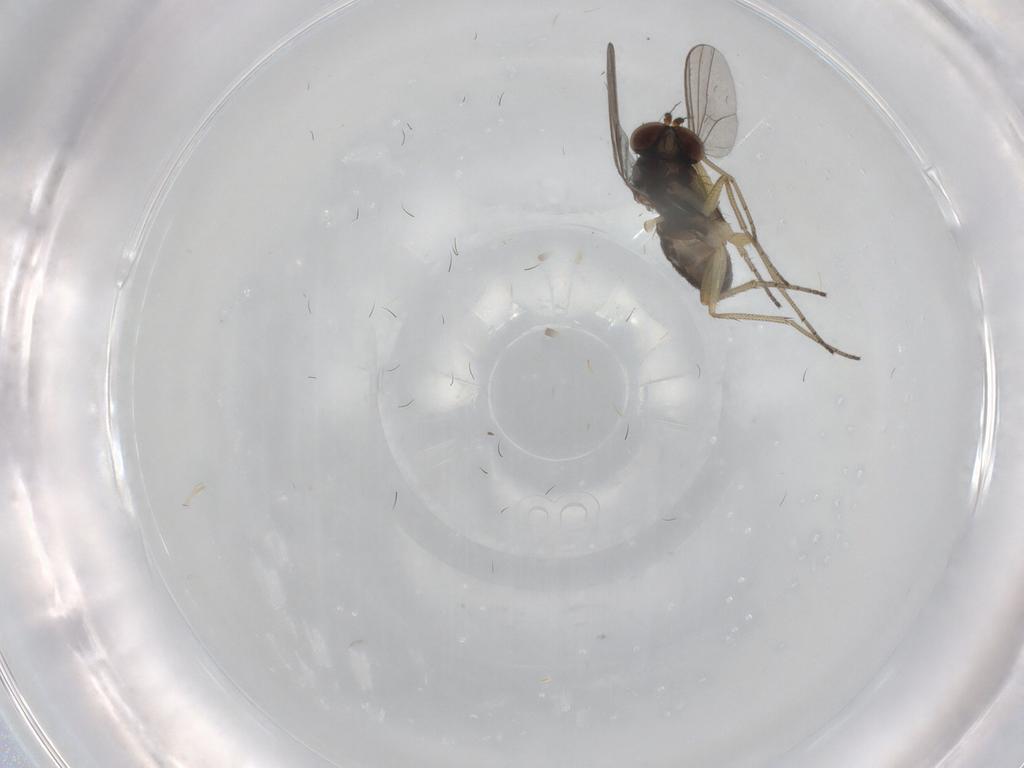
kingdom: Animalia
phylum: Arthropoda
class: Insecta
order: Diptera
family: Dolichopodidae
